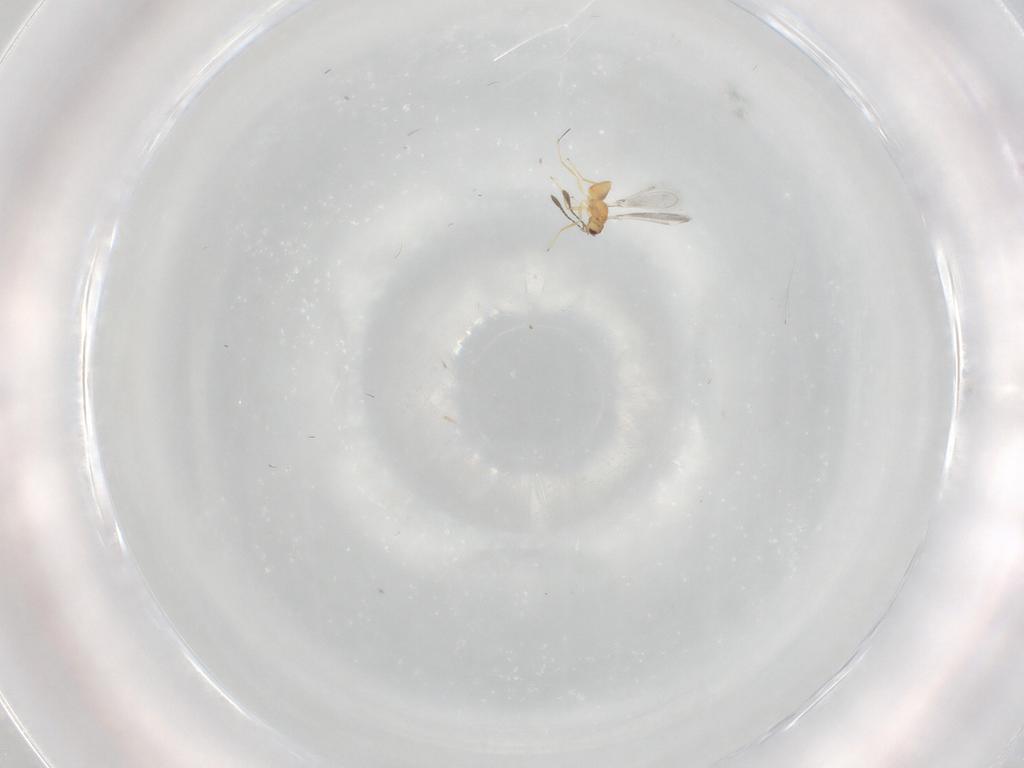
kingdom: Animalia
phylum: Arthropoda
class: Insecta
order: Hymenoptera
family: Mymaridae
